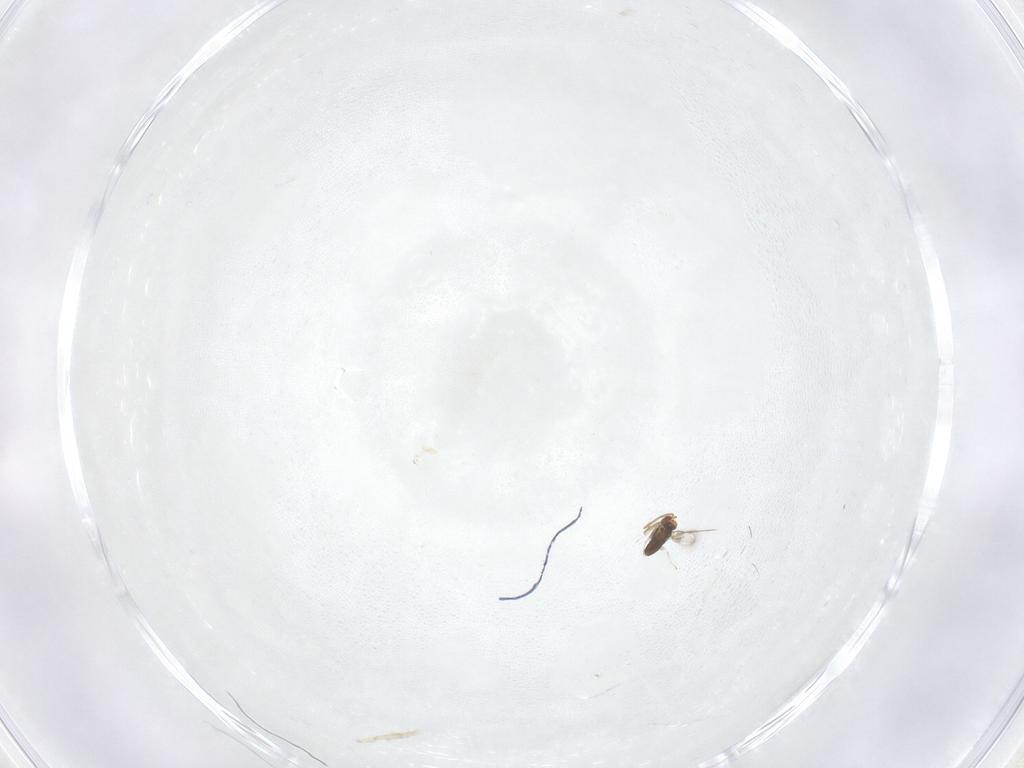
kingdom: Animalia
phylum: Arthropoda
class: Insecta
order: Hymenoptera
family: Azotidae
